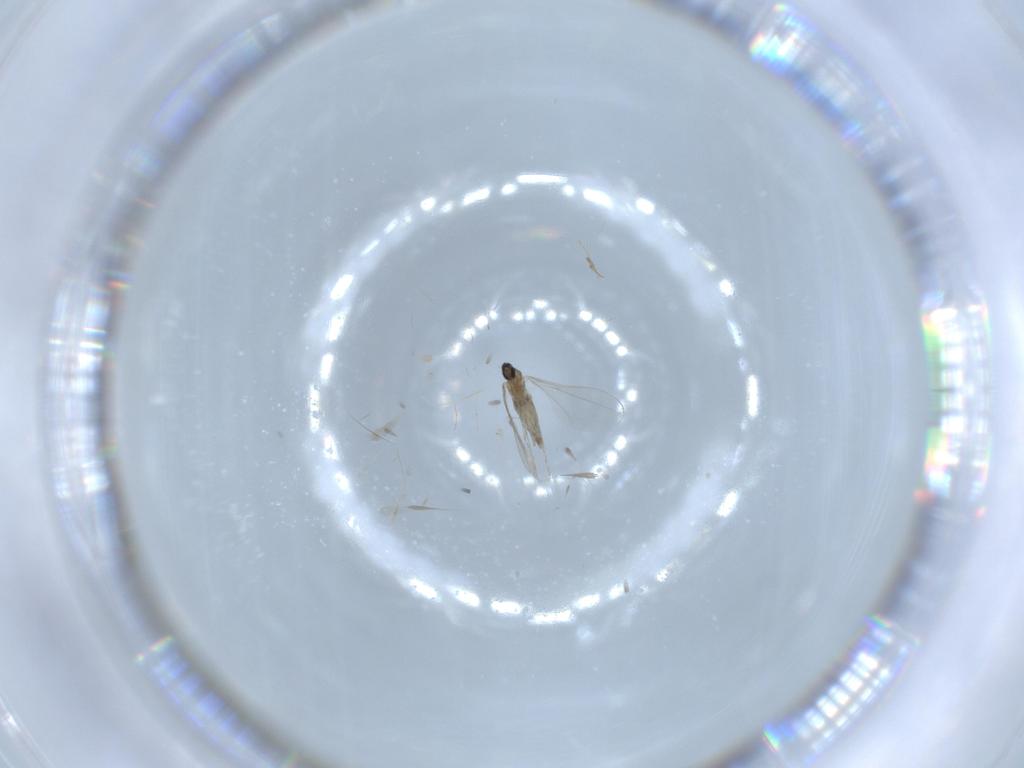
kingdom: Animalia
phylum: Arthropoda
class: Insecta
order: Diptera
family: Cecidomyiidae
